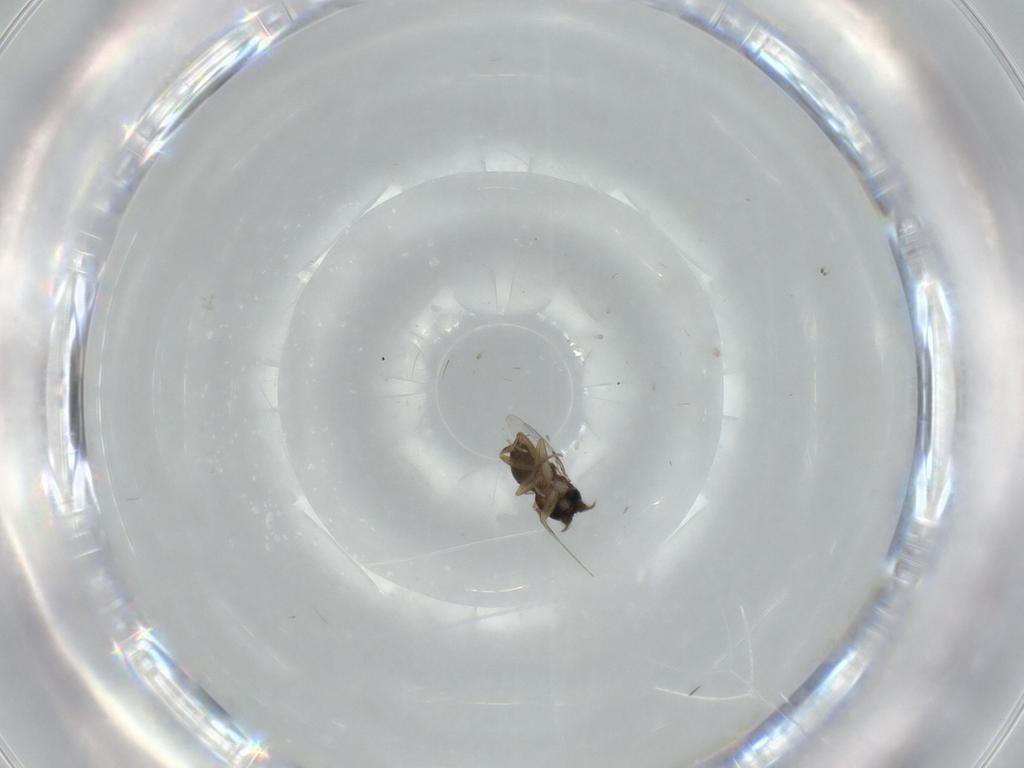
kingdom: Animalia
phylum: Arthropoda
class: Insecta
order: Diptera
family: Phoridae
